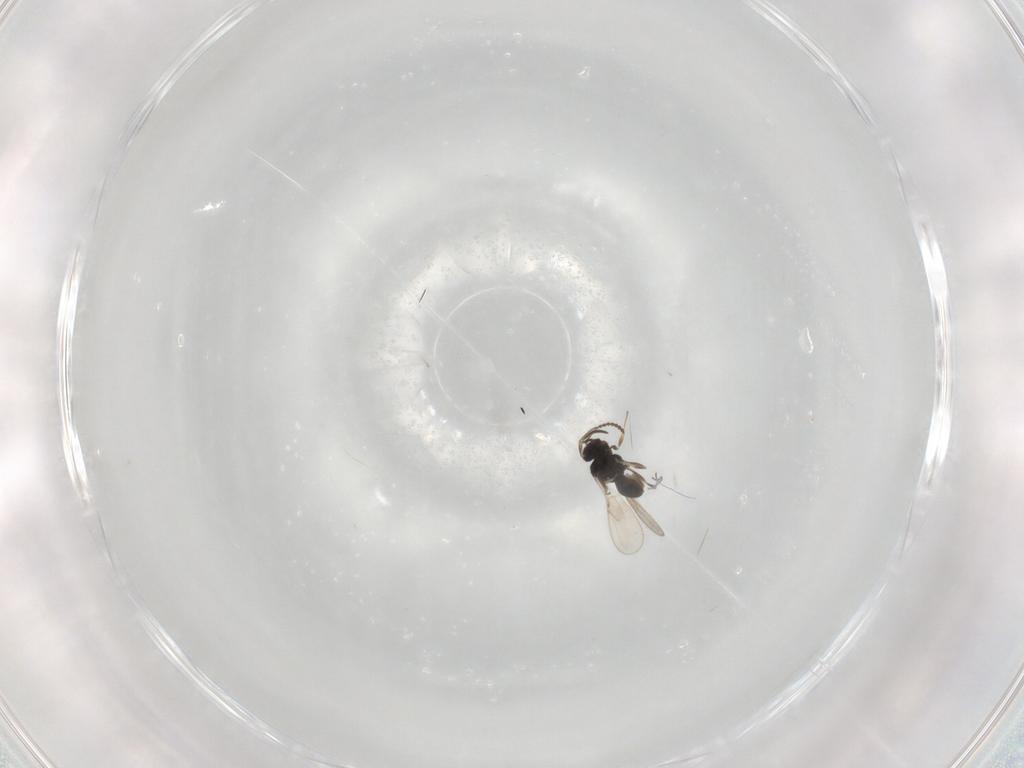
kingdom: Animalia
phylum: Arthropoda
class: Insecta
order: Hymenoptera
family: Scelionidae
